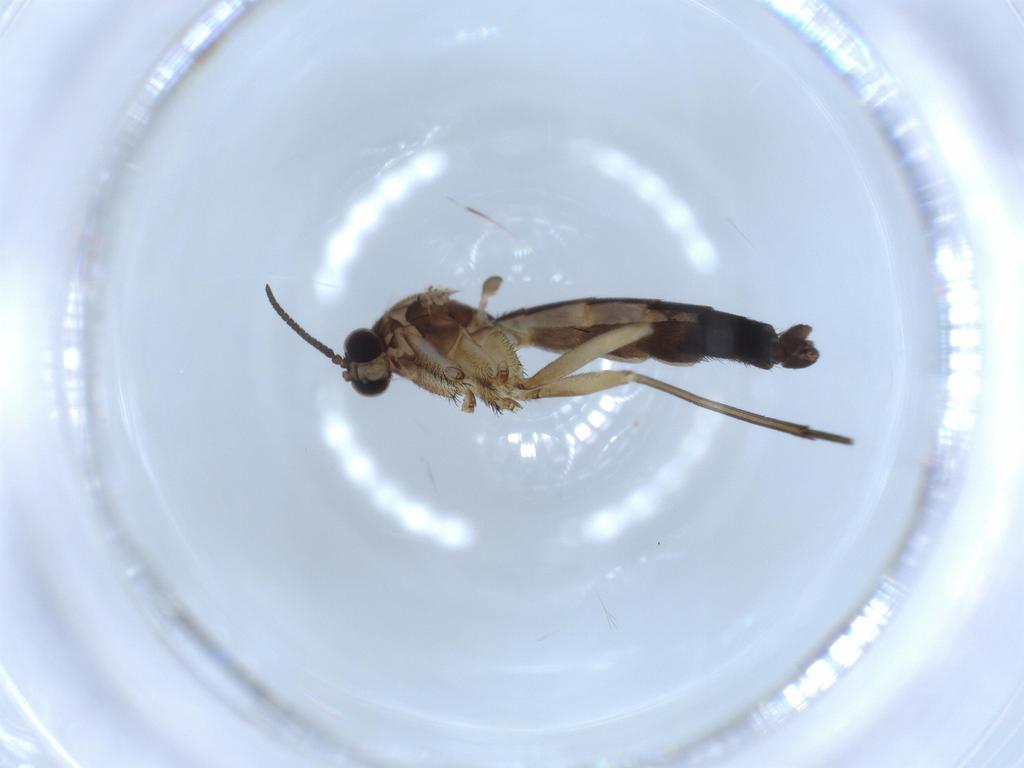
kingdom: Animalia
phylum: Arthropoda
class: Insecta
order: Diptera
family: Keroplatidae
